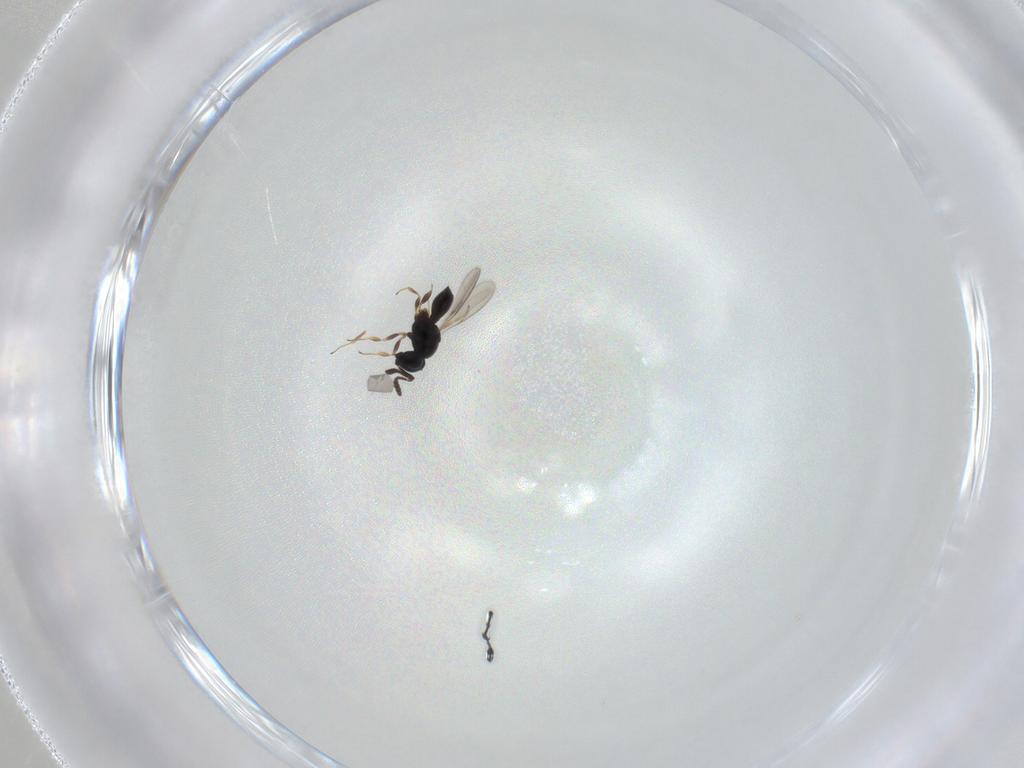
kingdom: Animalia
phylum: Arthropoda
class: Insecta
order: Hymenoptera
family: Scelionidae
